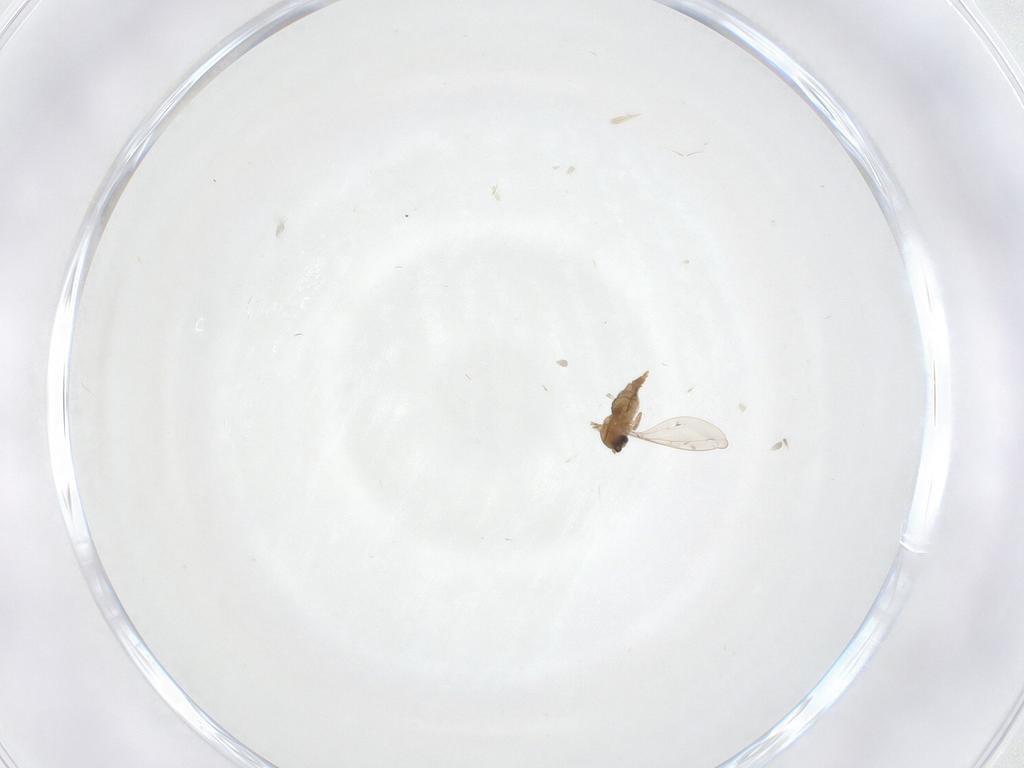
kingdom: Animalia
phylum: Arthropoda
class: Insecta
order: Diptera
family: Cecidomyiidae
